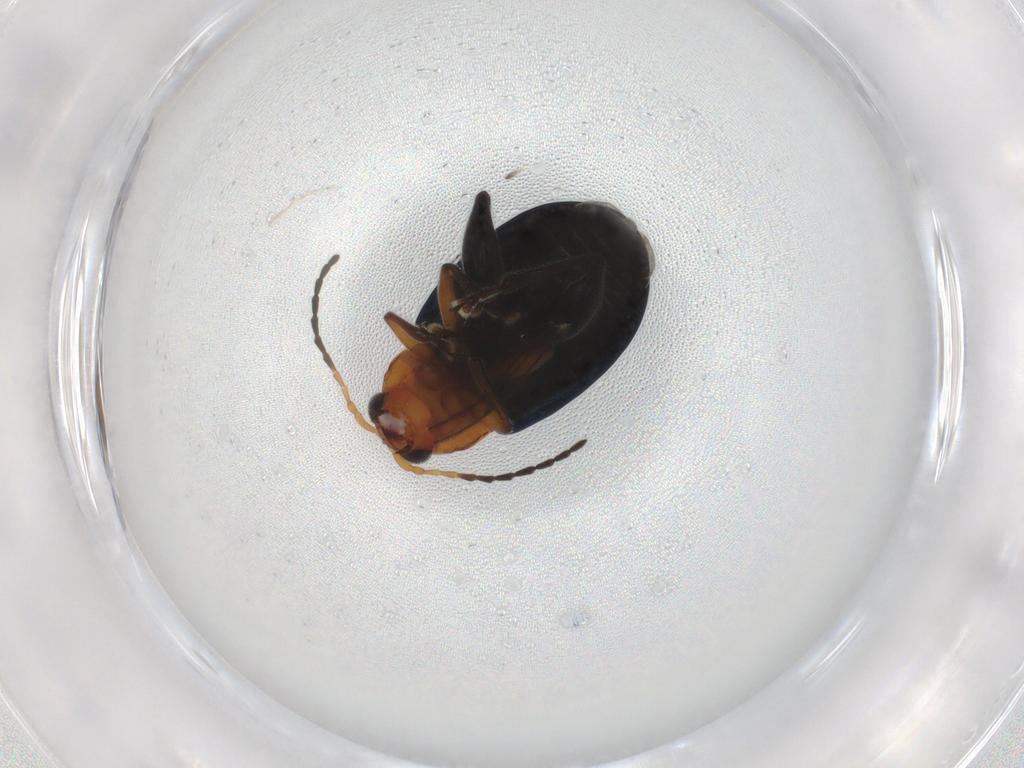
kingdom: Animalia
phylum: Arthropoda
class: Insecta
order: Coleoptera
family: Chrysomelidae
